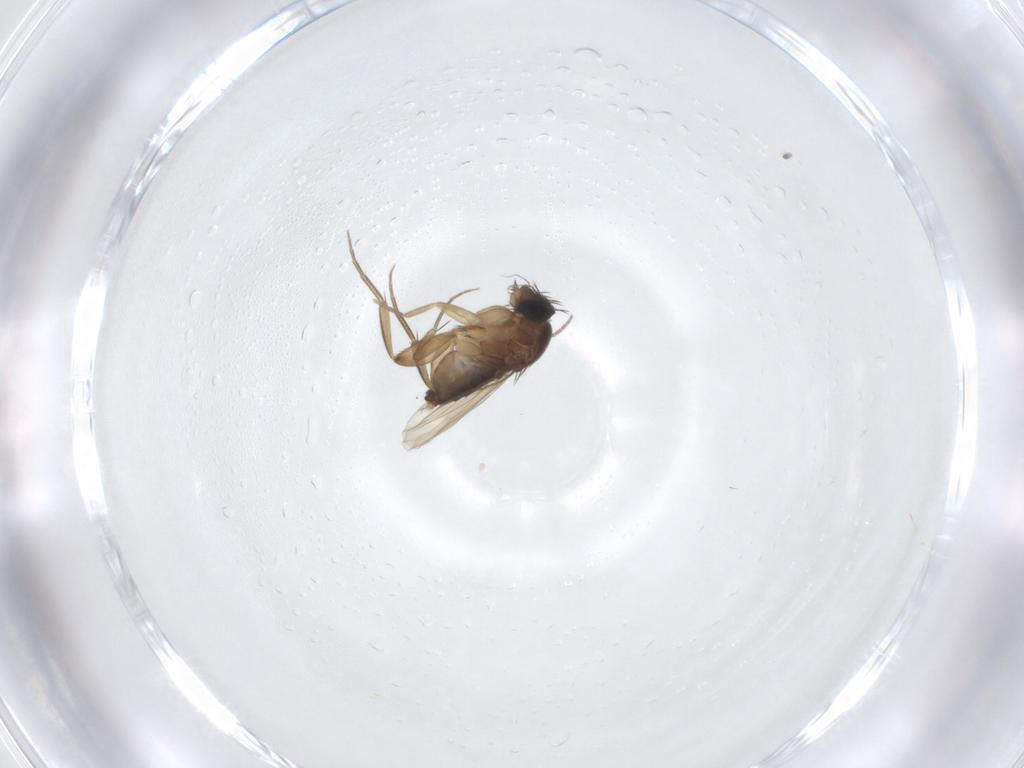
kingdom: Animalia
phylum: Arthropoda
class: Insecta
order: Diptera
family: Phoridae
